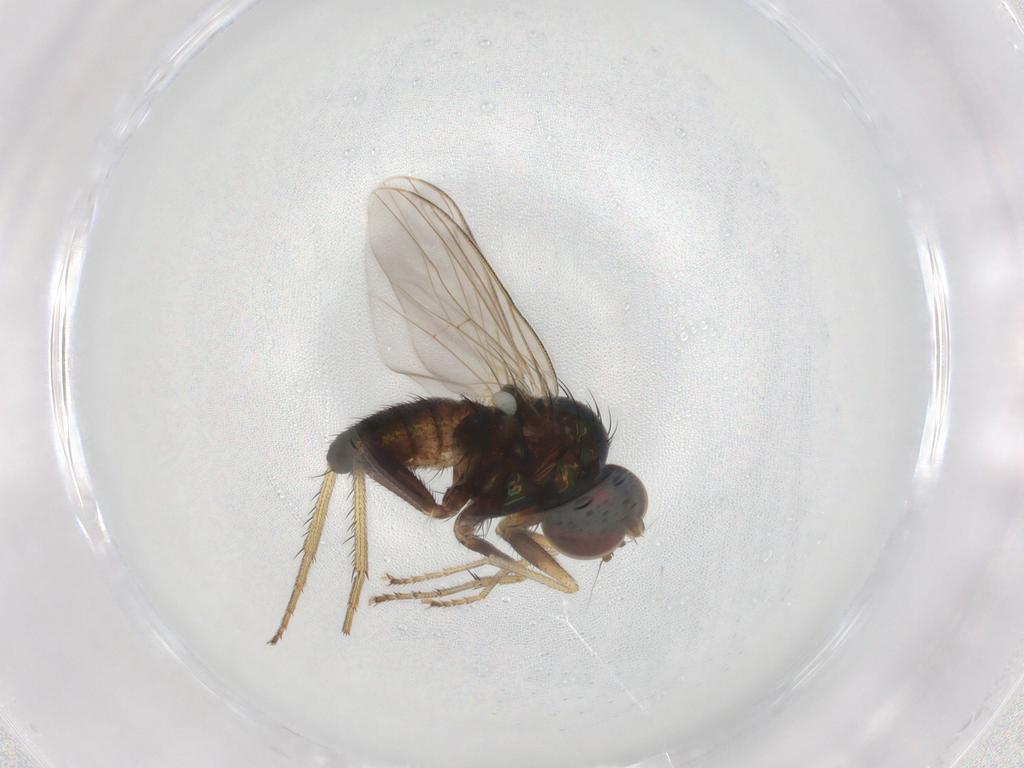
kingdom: Animalia
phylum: Arthropoda
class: Insecta
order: Diptera
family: Dolichopodidae
